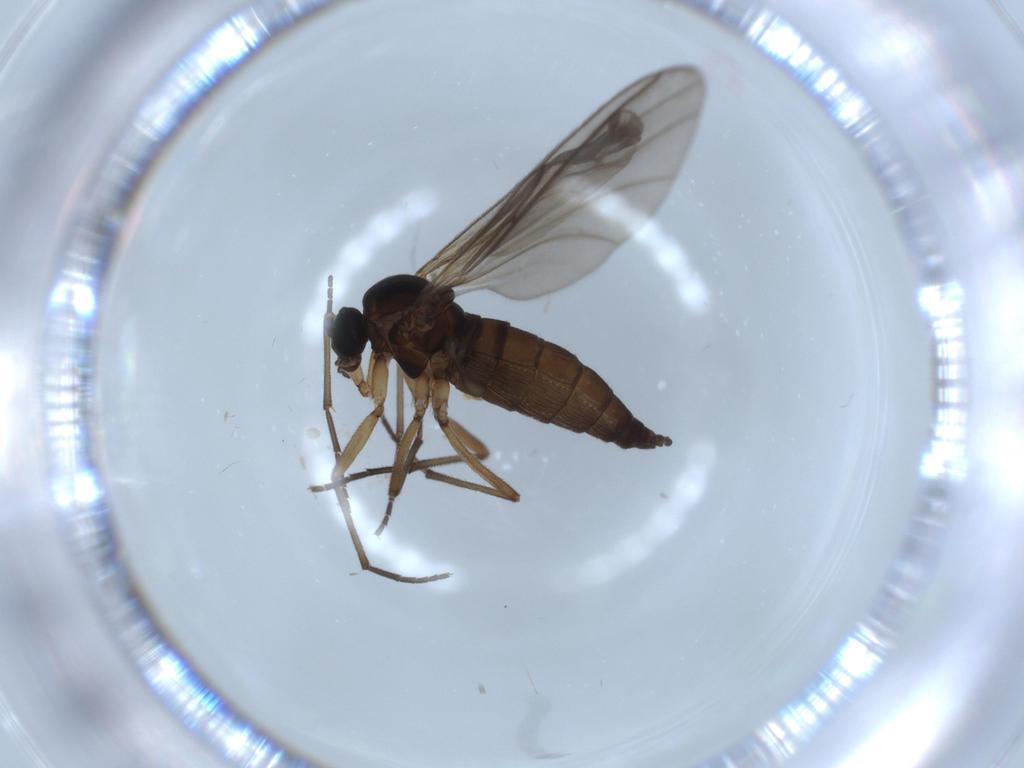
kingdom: Animalia
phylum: Arthropoda
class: Insecta
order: Diptera
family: Sciaridae
